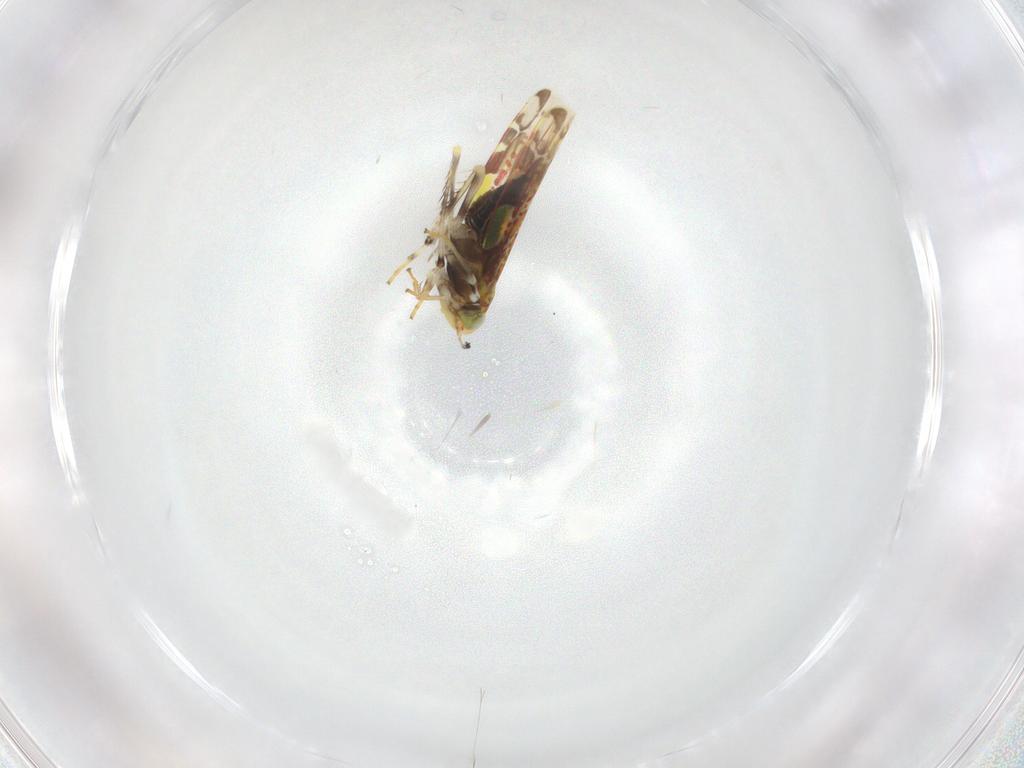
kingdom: Animalia
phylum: Arthropoda
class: Insecta
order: Hemiptera
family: Cicadellidae
